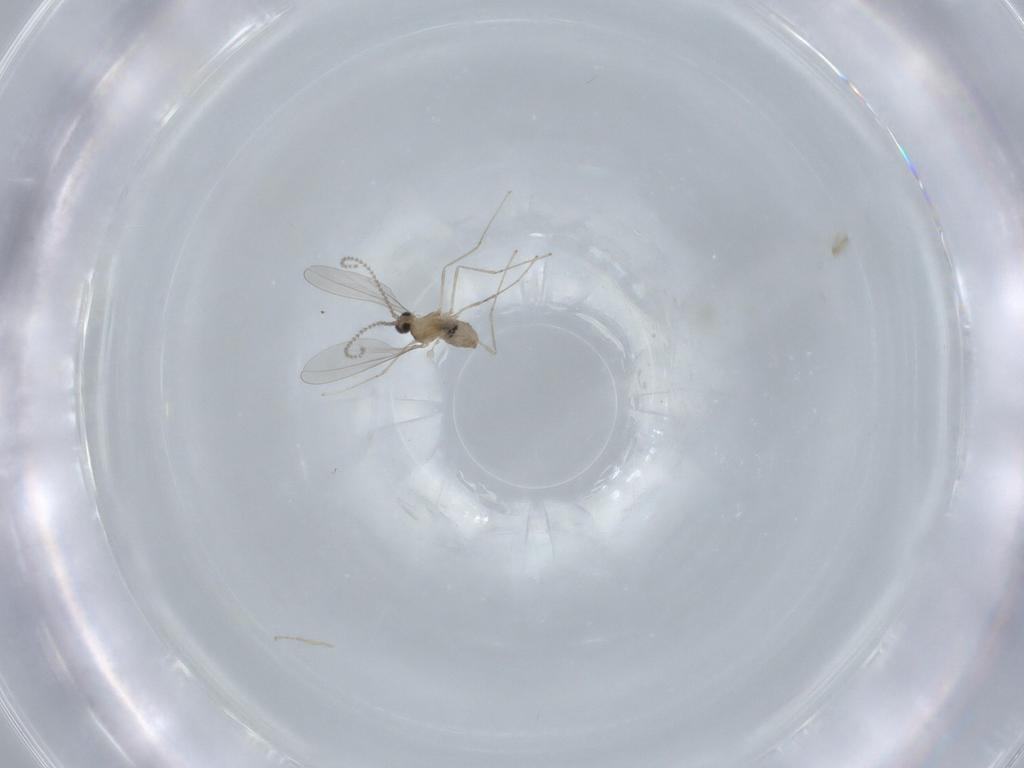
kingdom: Animalia
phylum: Arthropoda
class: Insecta
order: Diptera
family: Cecidomyiidae
